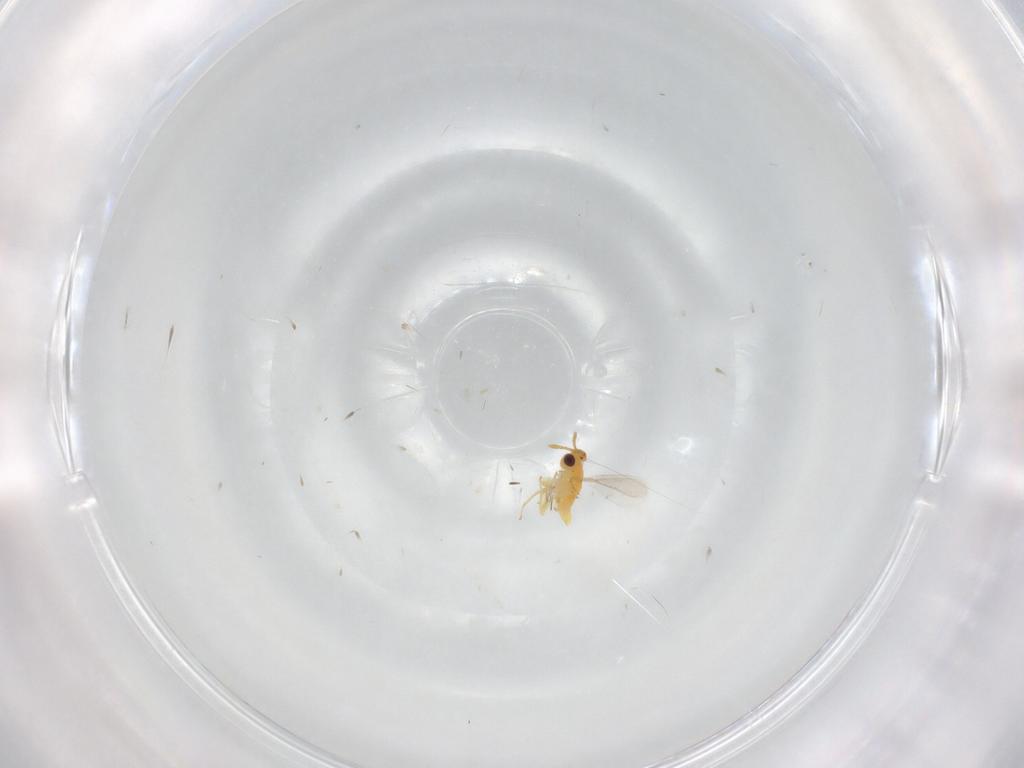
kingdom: Animalia
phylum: Arthropoda
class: Insecta
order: Hymenoptera
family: Aphelinidae
